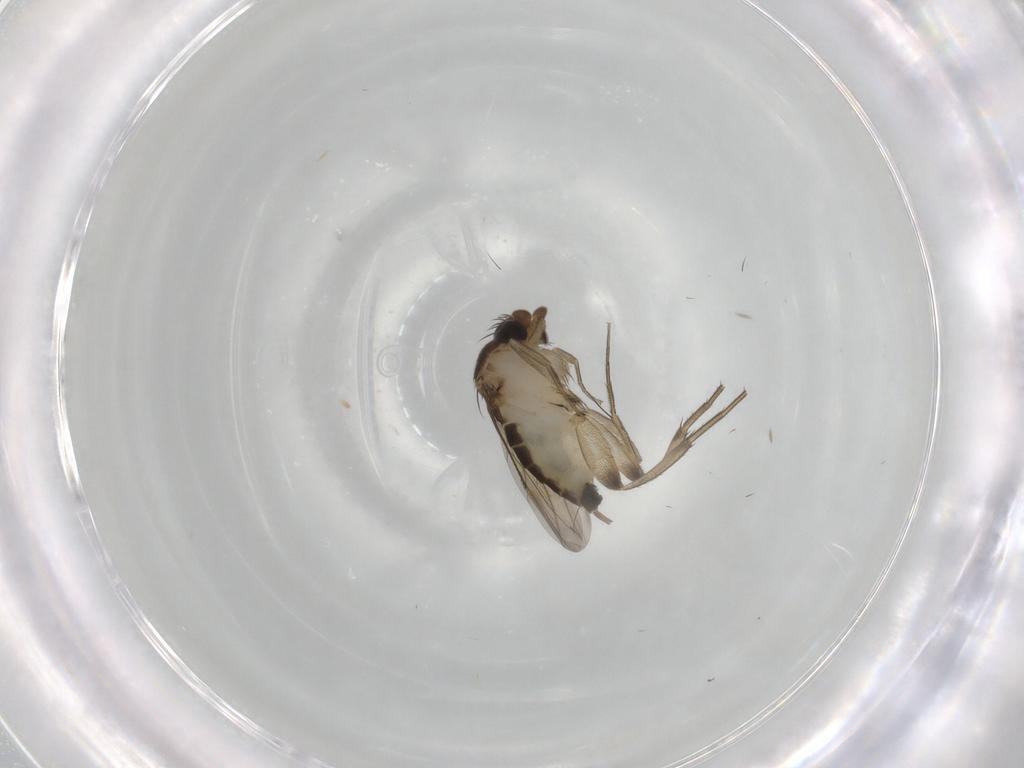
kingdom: Animalia
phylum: Arthropoda
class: Insecta
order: Diptera
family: Phoridae
